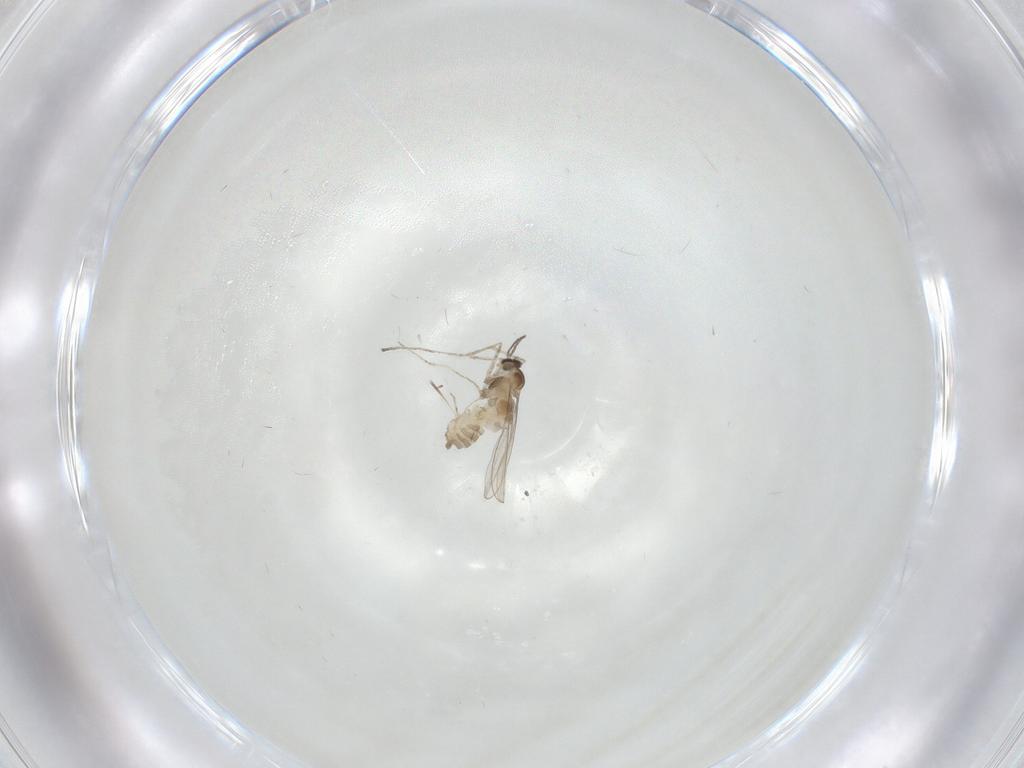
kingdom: Animalia
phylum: Arthropoda
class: Insecta
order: Diptera
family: Cecidomyiidae
